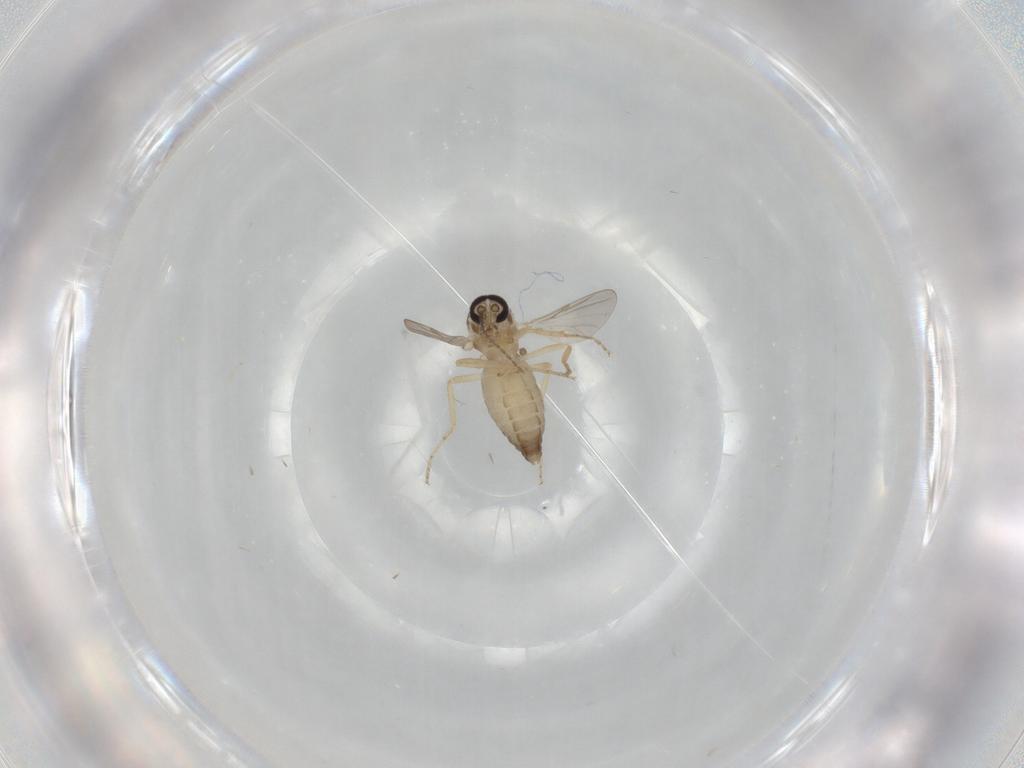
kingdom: Animalia
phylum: Arthropoda
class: Insecta
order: Diptera
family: Ceratopogonidae
